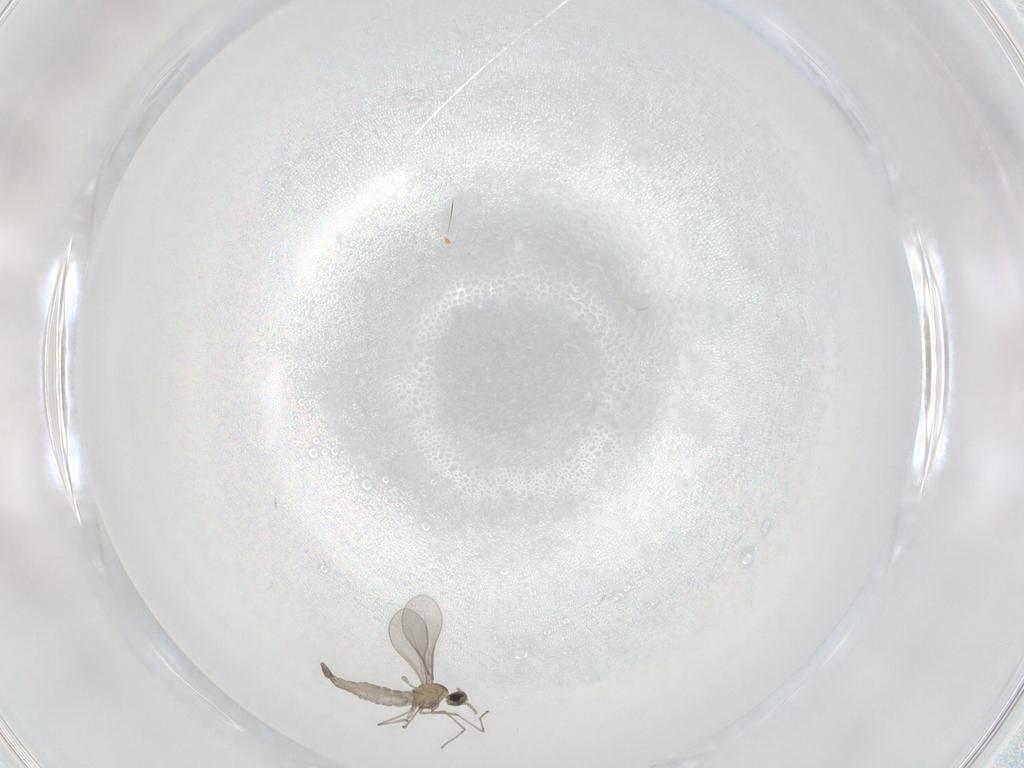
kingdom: Animalia
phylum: Arthropoda
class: Insecta
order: Diptera
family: Cecidomyiidae
